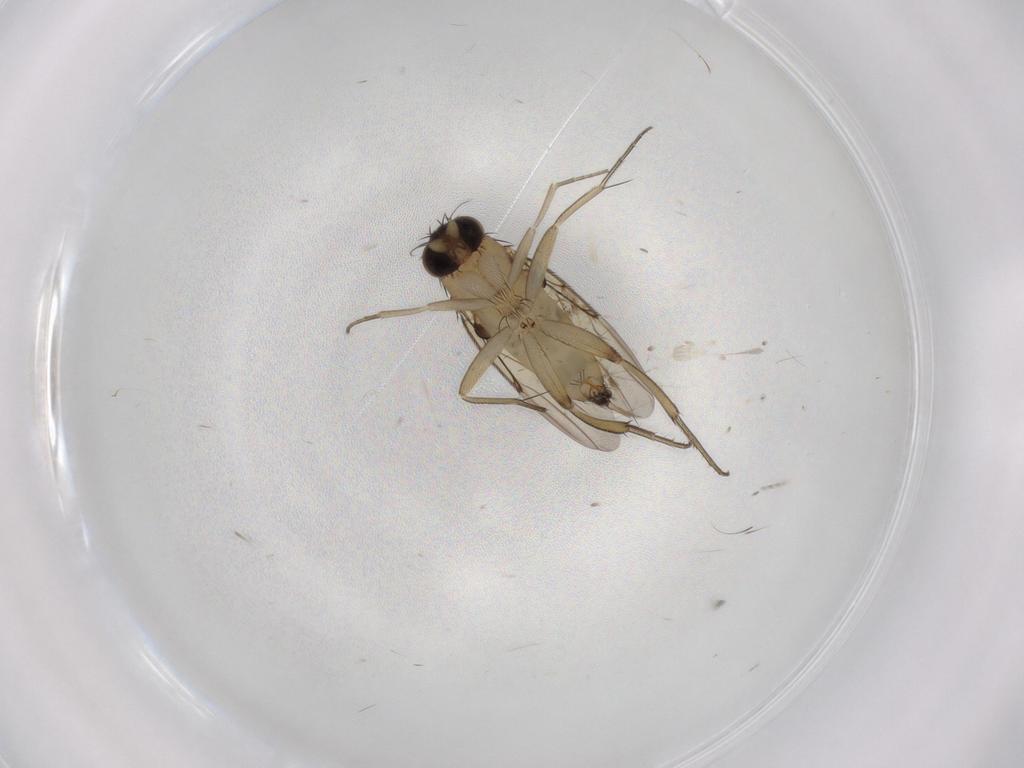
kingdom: Animalia
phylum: Arthropoda
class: Insecta
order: Diptera
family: Phoridae
